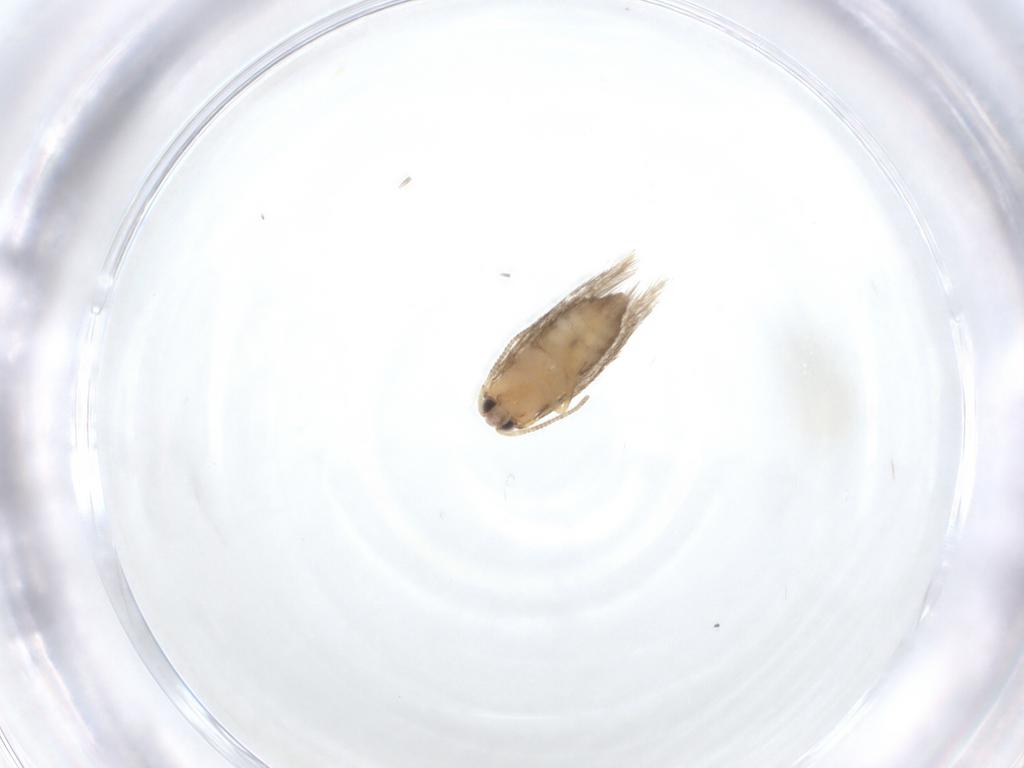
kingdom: Animalia
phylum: Arthropoda
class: Insecta
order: Lepidoptera
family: Nepticulidae
